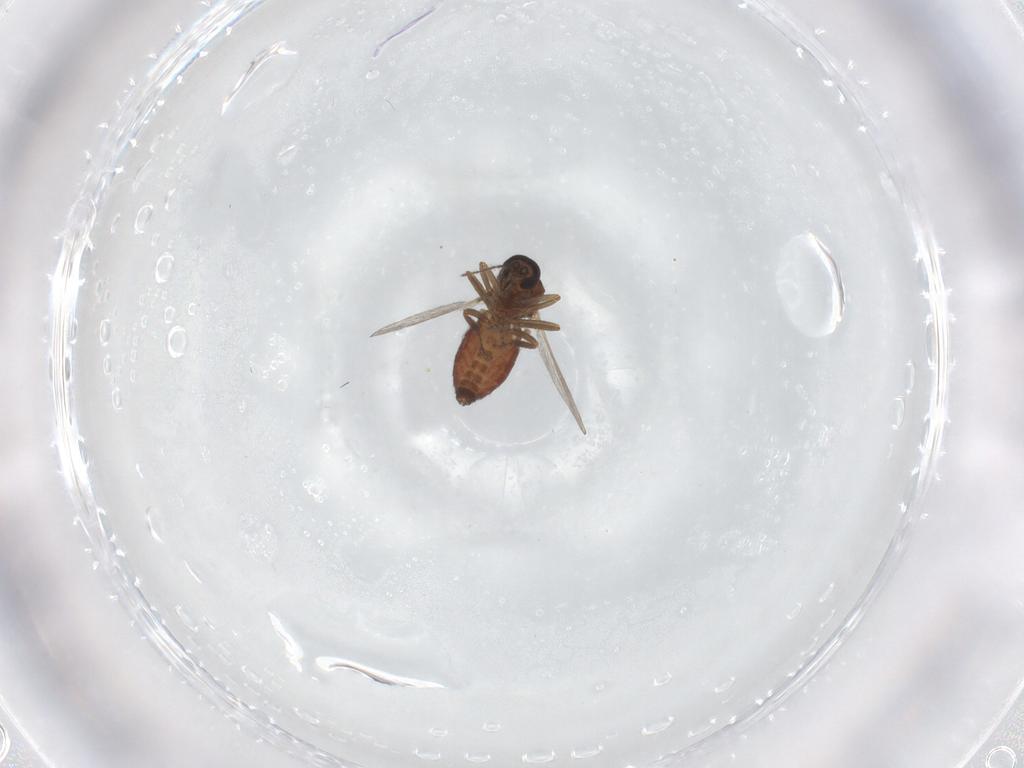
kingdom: Animalia
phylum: Arthropoda
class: Insecta
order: Diptera
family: Ceratopogonidae
